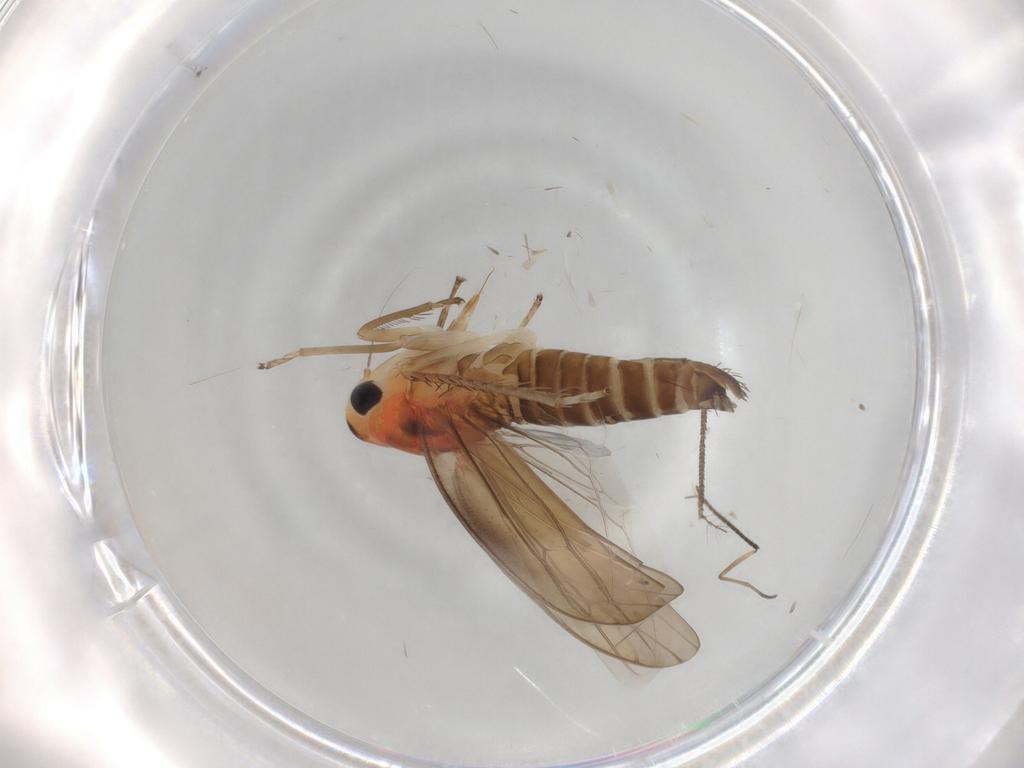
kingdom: Animalia
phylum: Arthropoda
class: Insecta
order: Hemiptera
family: Cicadellidae
